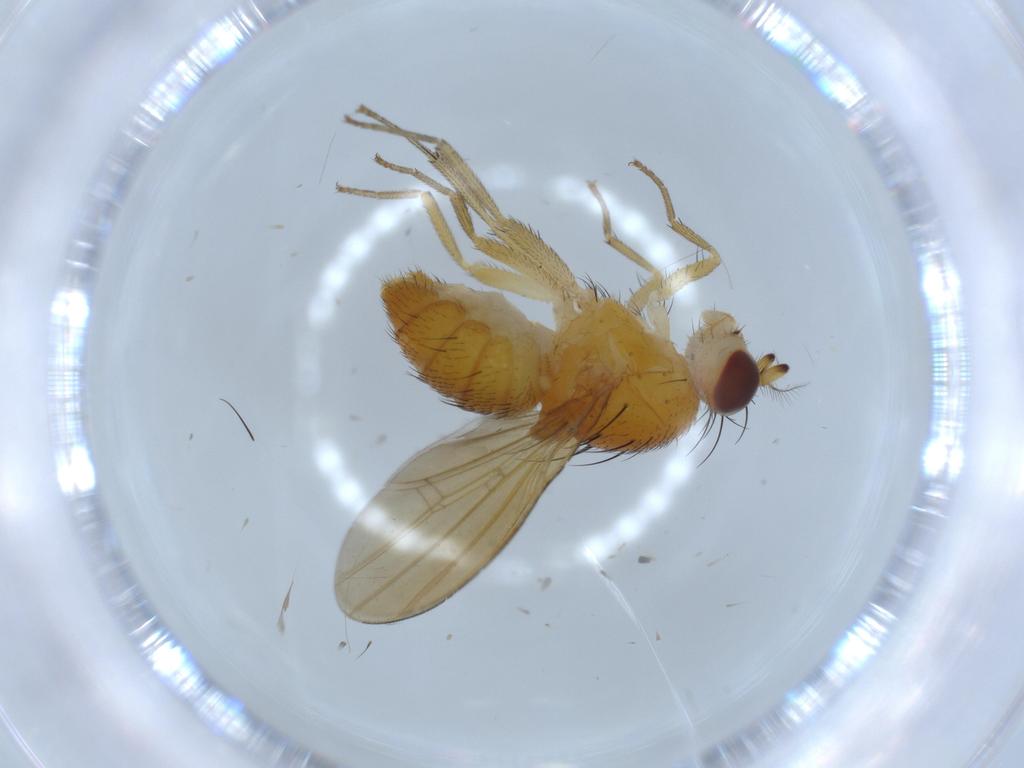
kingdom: Animalia
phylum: Arthropoda
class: Insecta
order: Diptera
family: Lauxaniidae
